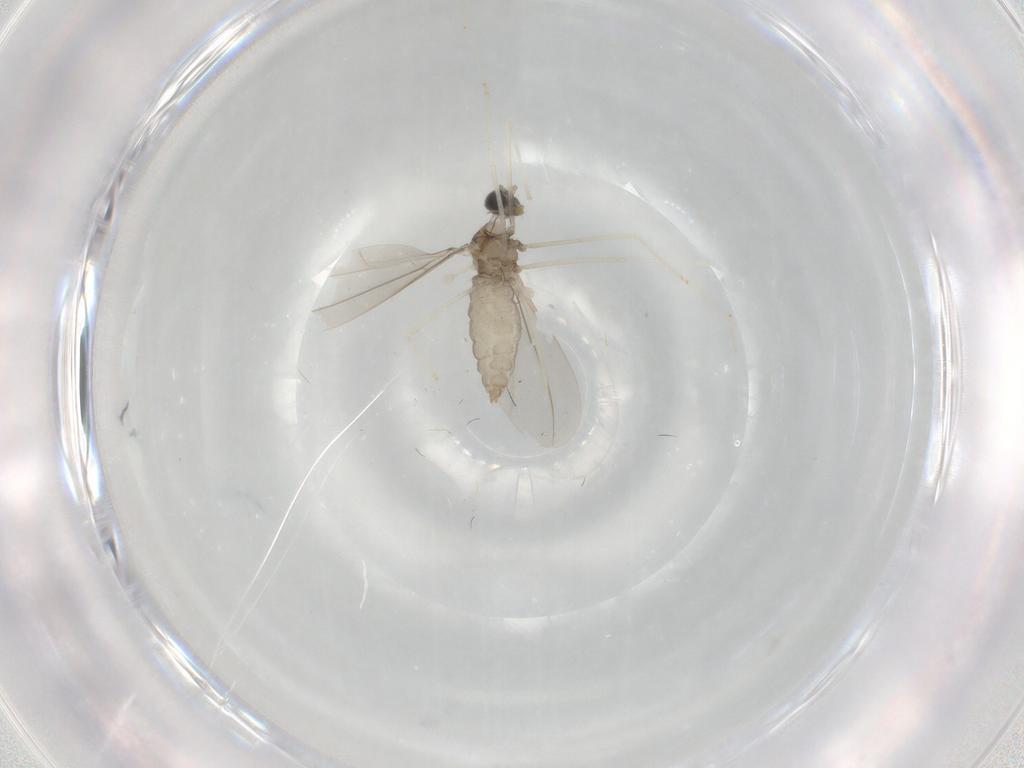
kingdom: Animalia
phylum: Arthropoda
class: Insecta
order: Diptera
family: Cecidomyiidae
